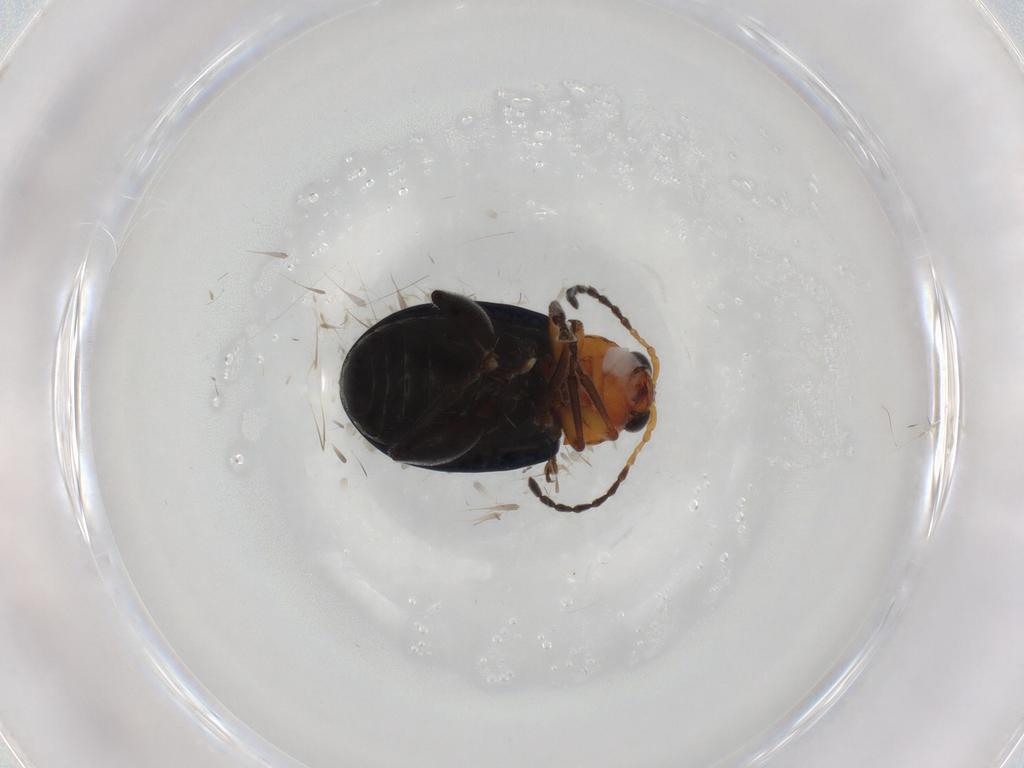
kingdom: Animalia
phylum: Arthropoda
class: Insecta
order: Coleoptera
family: Chrysomelidae
